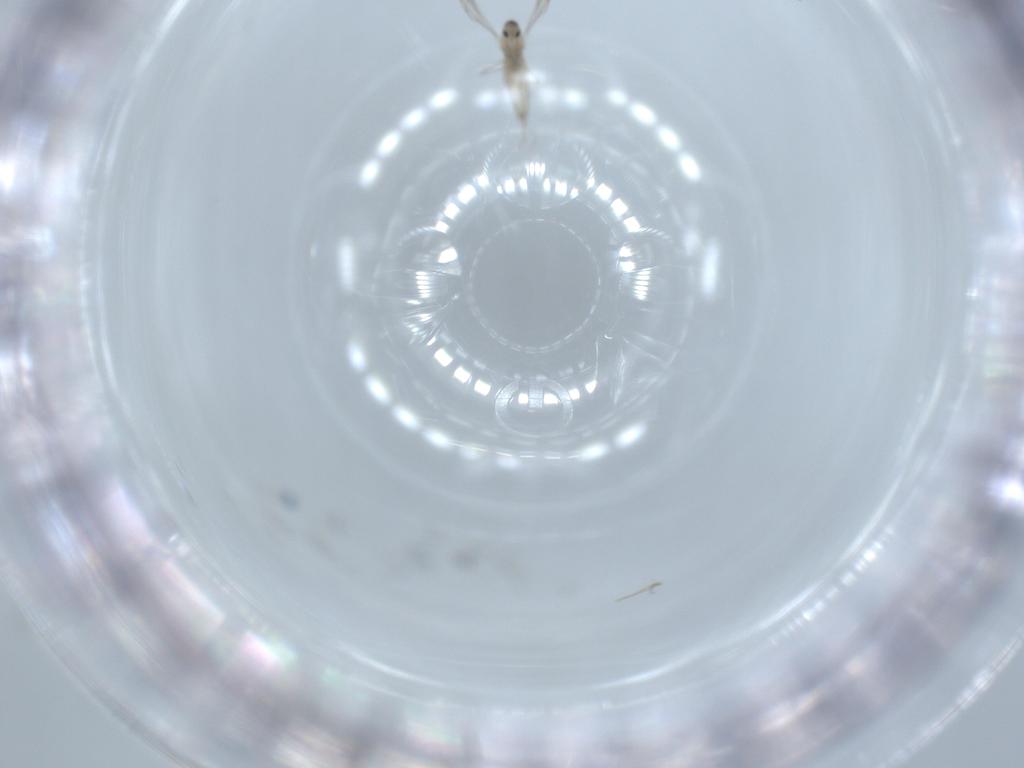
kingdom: Animalia
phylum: Arthropoda
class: Insecta
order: Diptera
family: Cecidomyiidae
